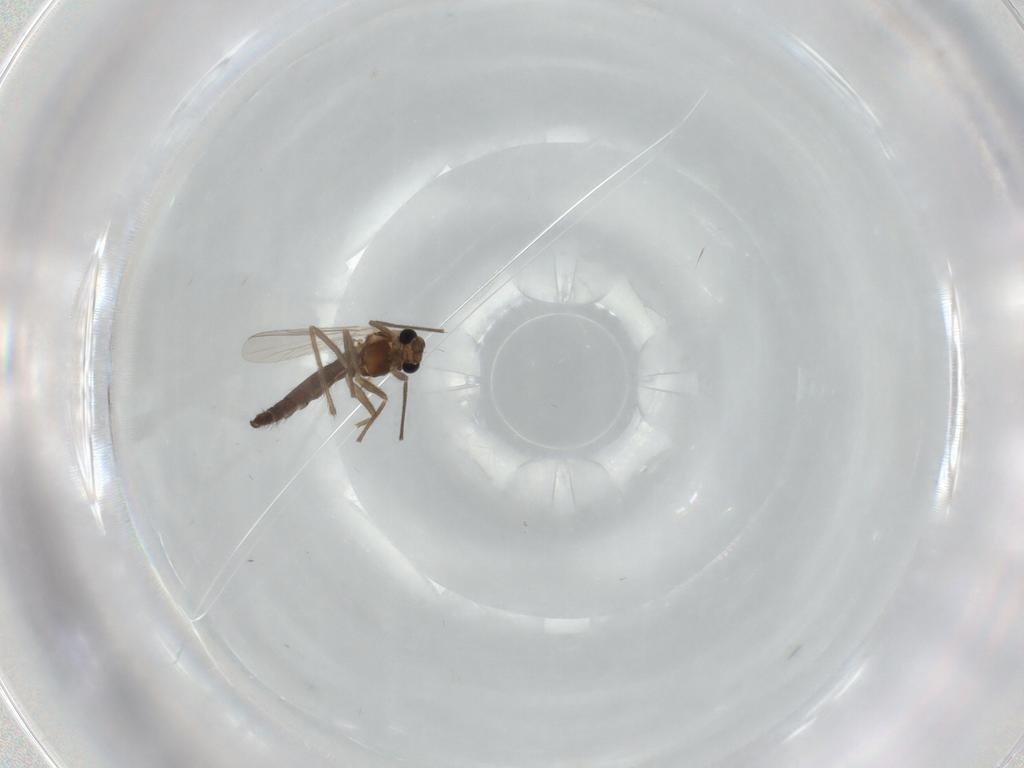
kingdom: Animalia
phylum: Arthropoda
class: Insecta
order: Diptera
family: Chironomidae
